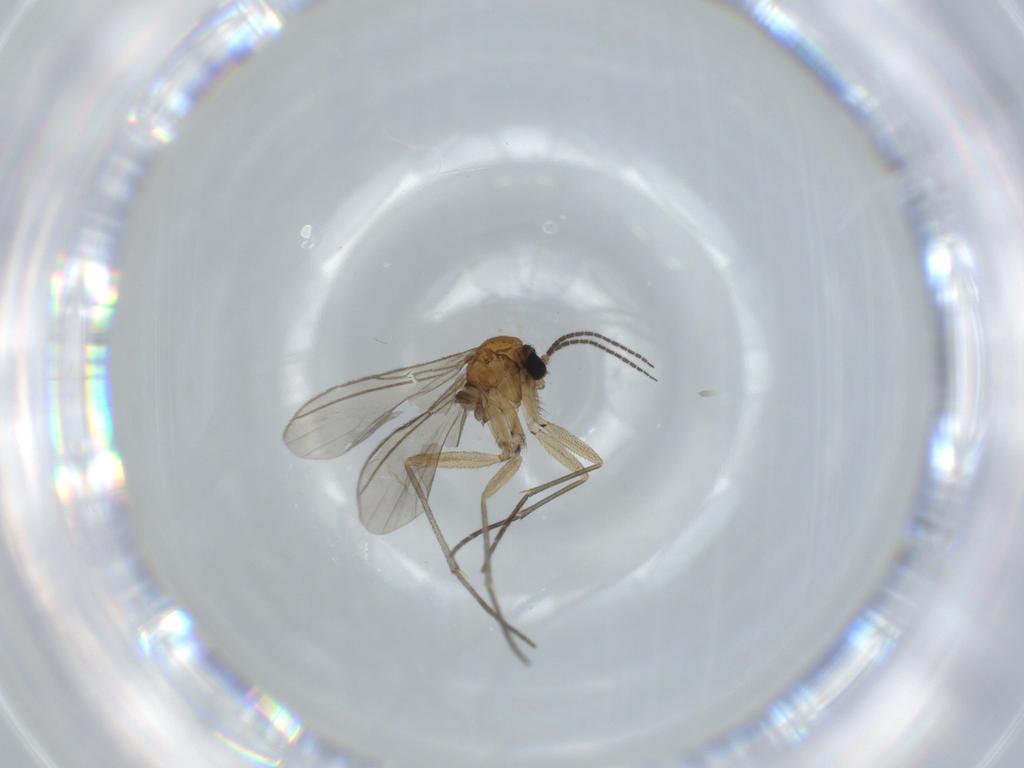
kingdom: Animalia
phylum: Arthropoda
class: Insecta
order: Diptera
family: Sciaridae
